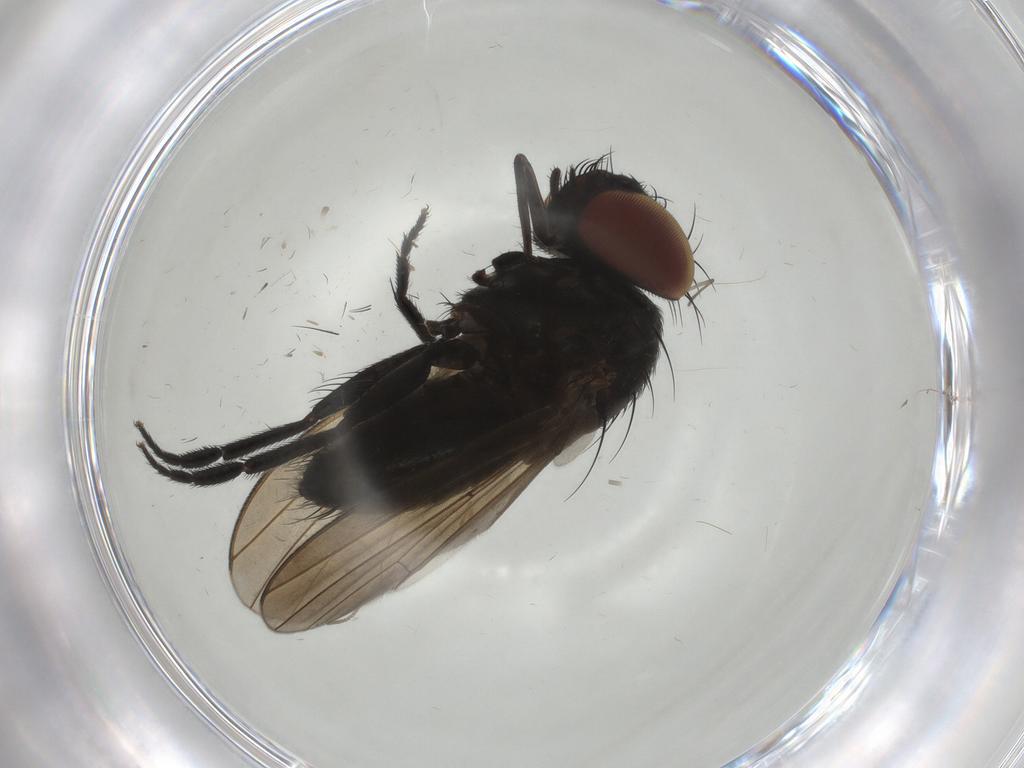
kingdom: Animalia
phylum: Arthropoda
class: Insecta
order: Diptera
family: Milichiidae
